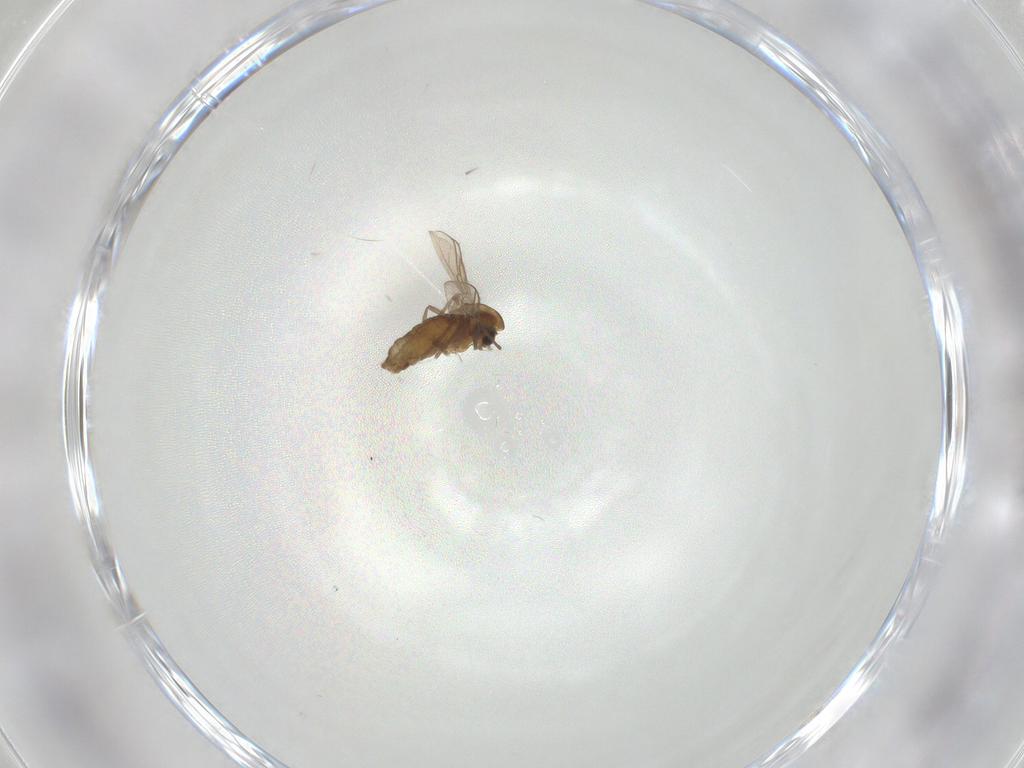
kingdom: Animalia
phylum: Arthropoda
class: Insecta
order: Diptera
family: Chironomidae
